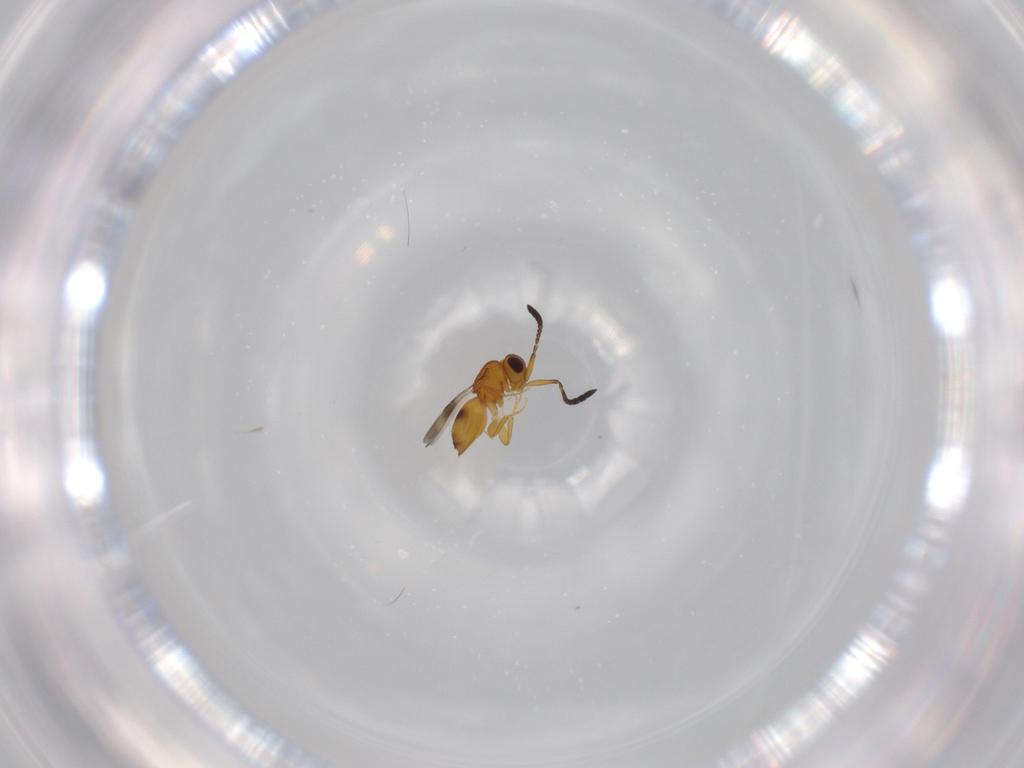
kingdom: Animalia
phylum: Arthropoda
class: Insecta
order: Hymenoptera
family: Ceraphronidae
